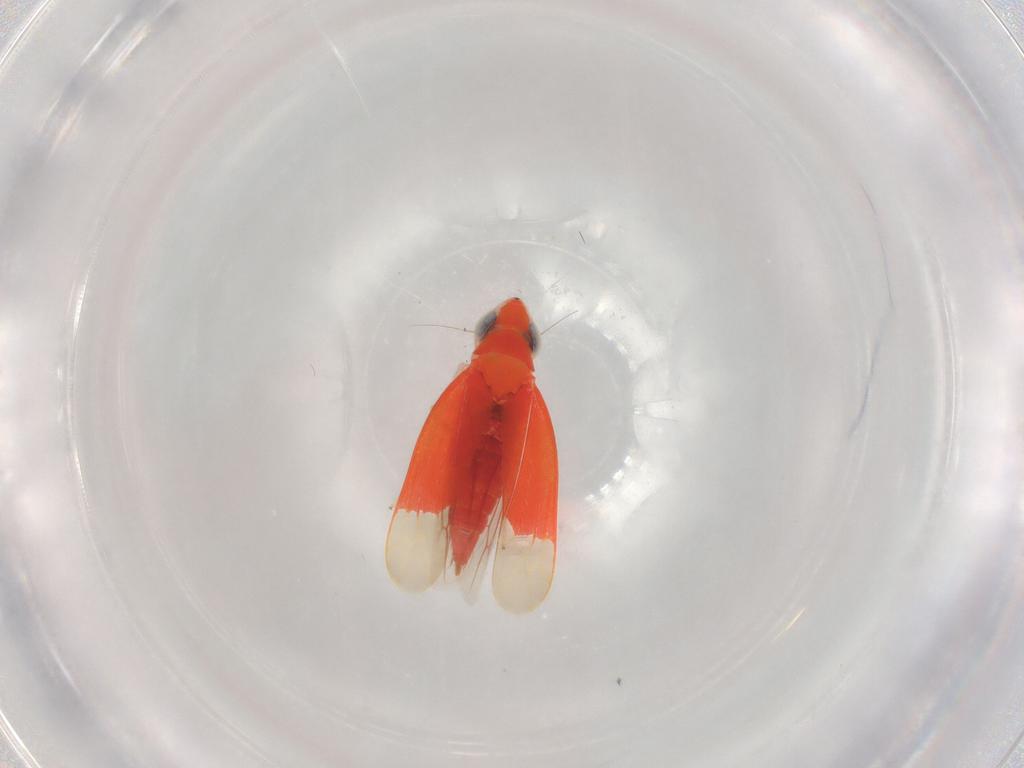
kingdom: Animalia
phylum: Arthropoda
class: Insecta
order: Hemiptera
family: Cicadellidae
